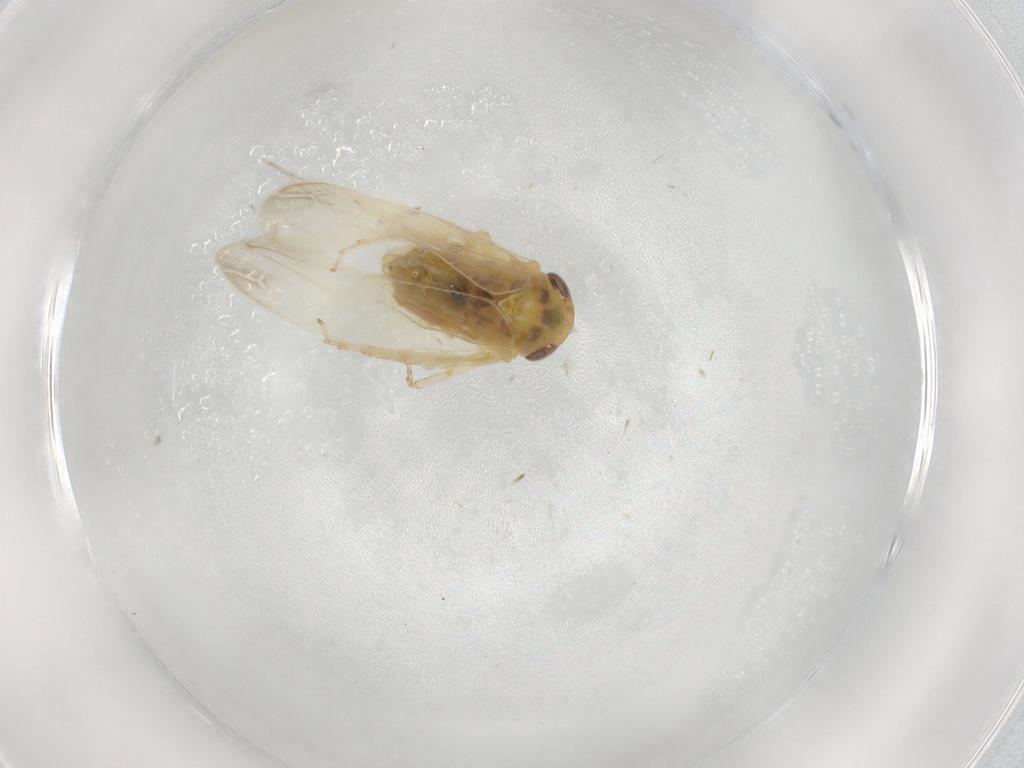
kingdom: Animalia
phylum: Arthropoda
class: Insecta
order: Hemiptera
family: Cicadellidae
